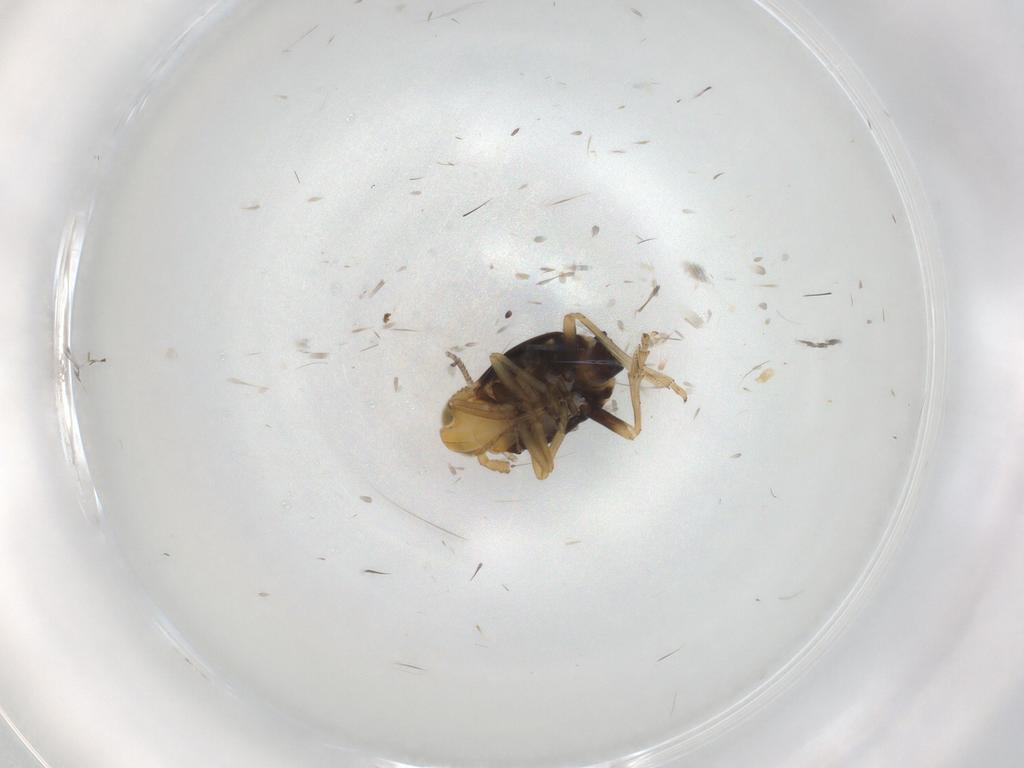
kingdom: Animalia
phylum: Arthropoda
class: Insecta
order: Hemiptera
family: Delphacidae
